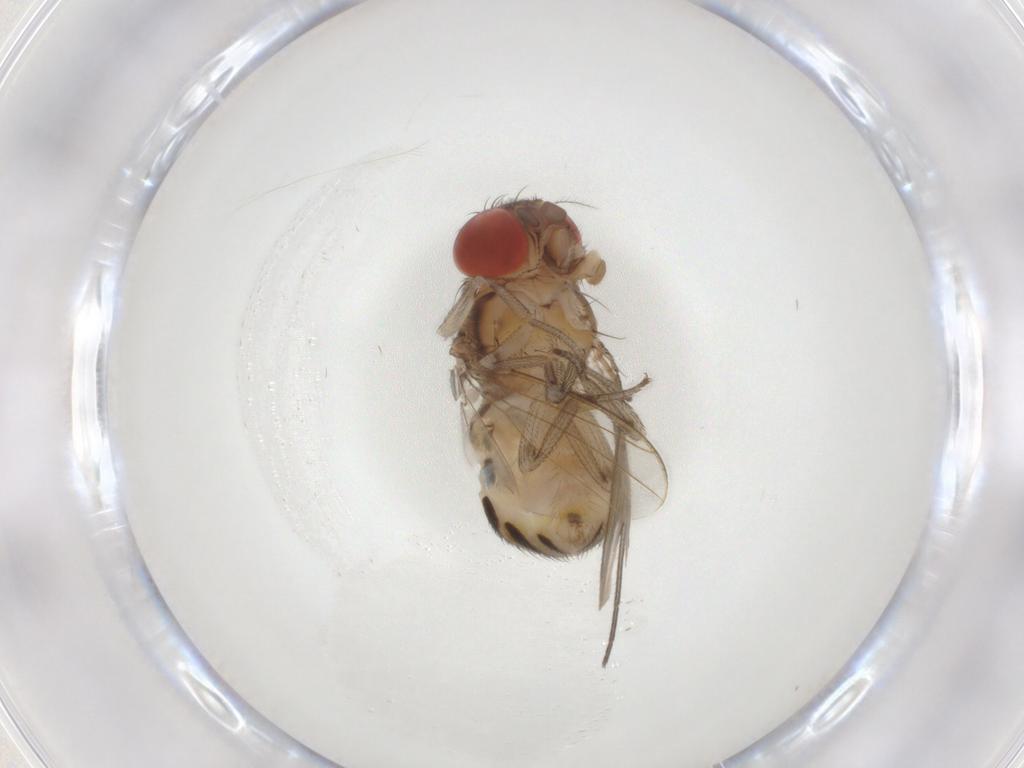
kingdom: Animalia
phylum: Arthropoda
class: Insecta
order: Diptera
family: Drosophilidae
